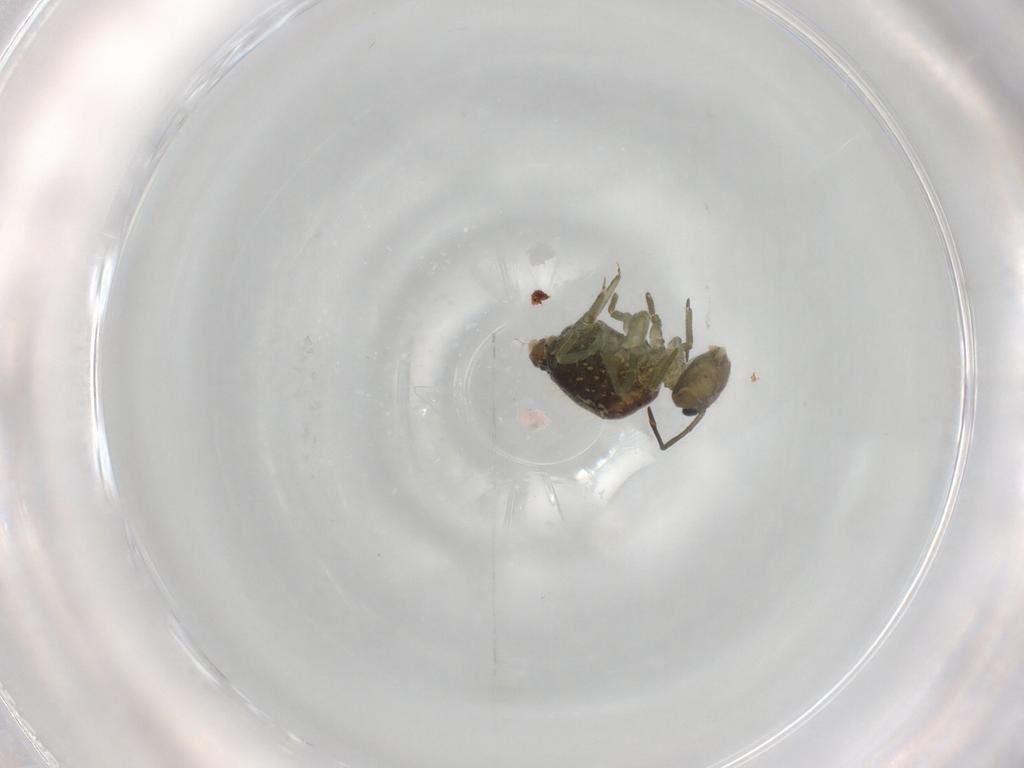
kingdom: Animalia
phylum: Arthropoda
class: Collembola
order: Symphypleona
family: Sminthuridae
